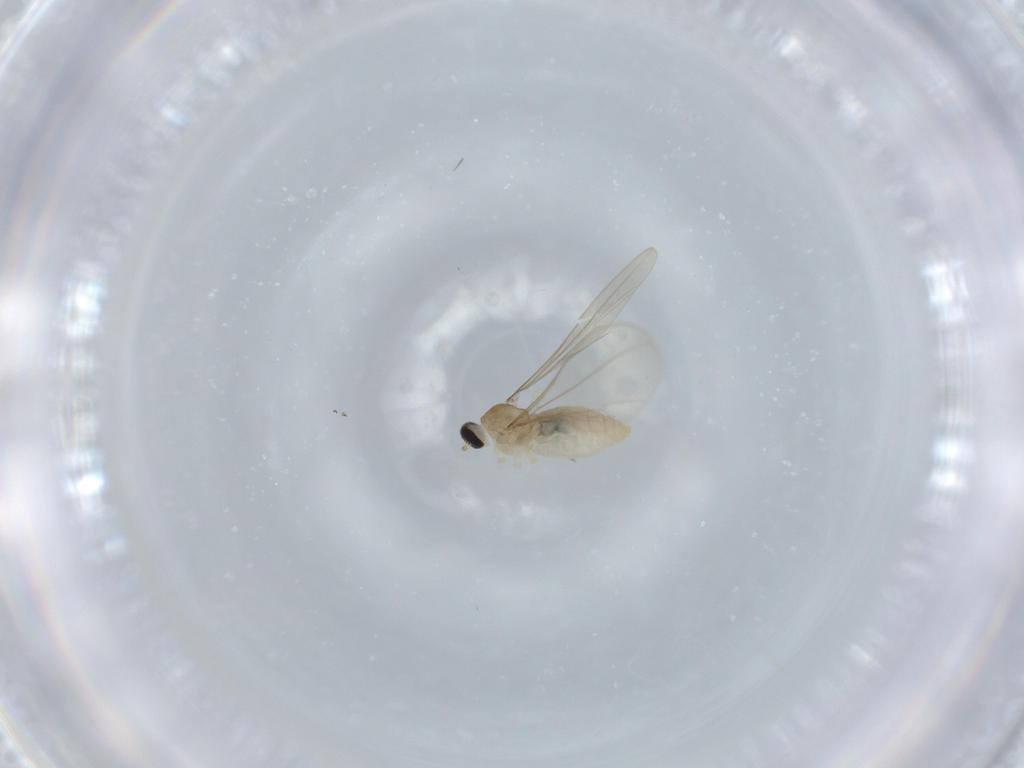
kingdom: Animalia
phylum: Arthropoda
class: Insecta
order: Diptera
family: Cecidomyiidae
